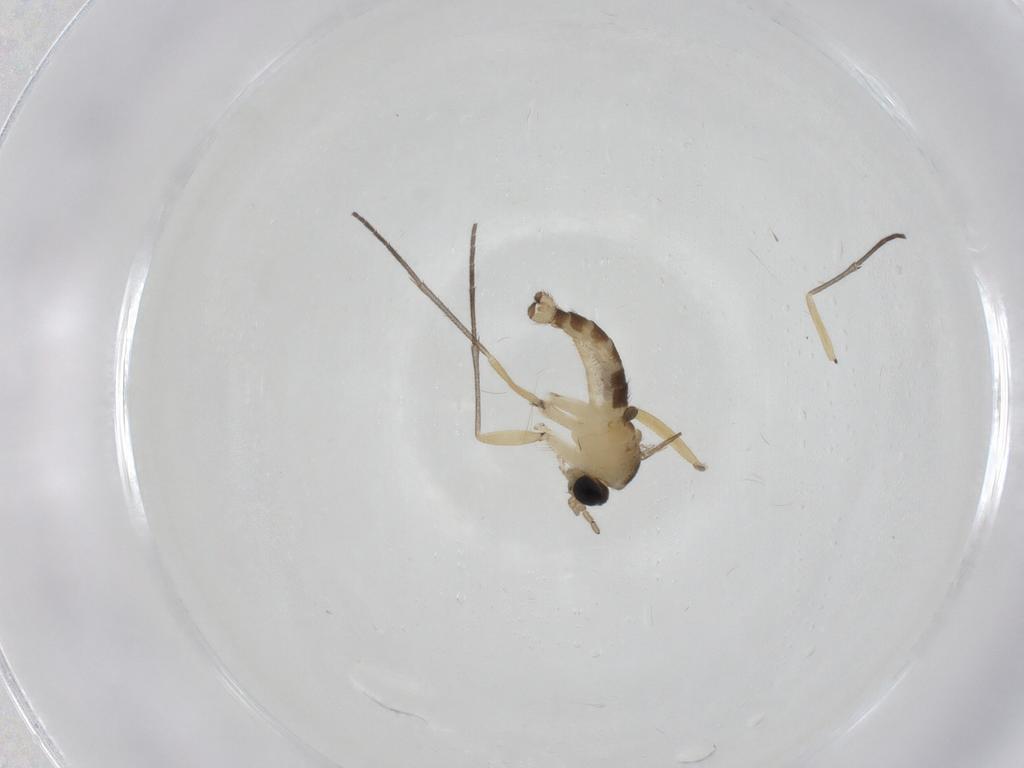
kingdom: Animalia
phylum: Arthropoda
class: Insecta
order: Diptera
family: Sciaridae
